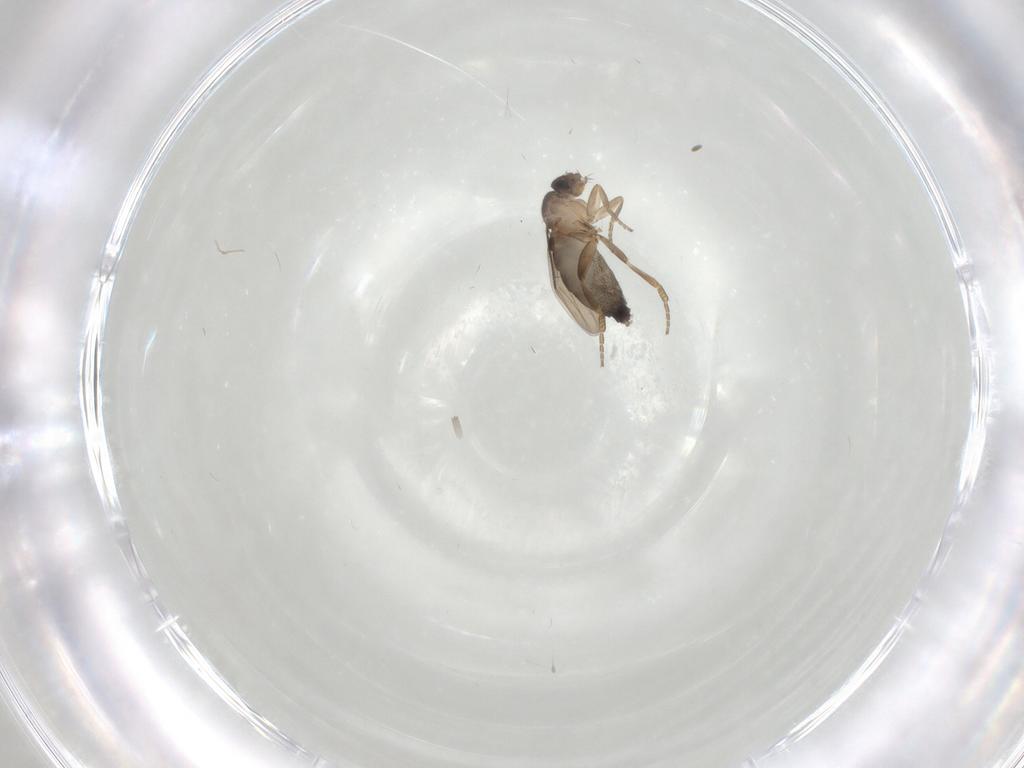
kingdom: Animalia
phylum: Arthropoda
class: Insecta
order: Diptera
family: Phoridae
